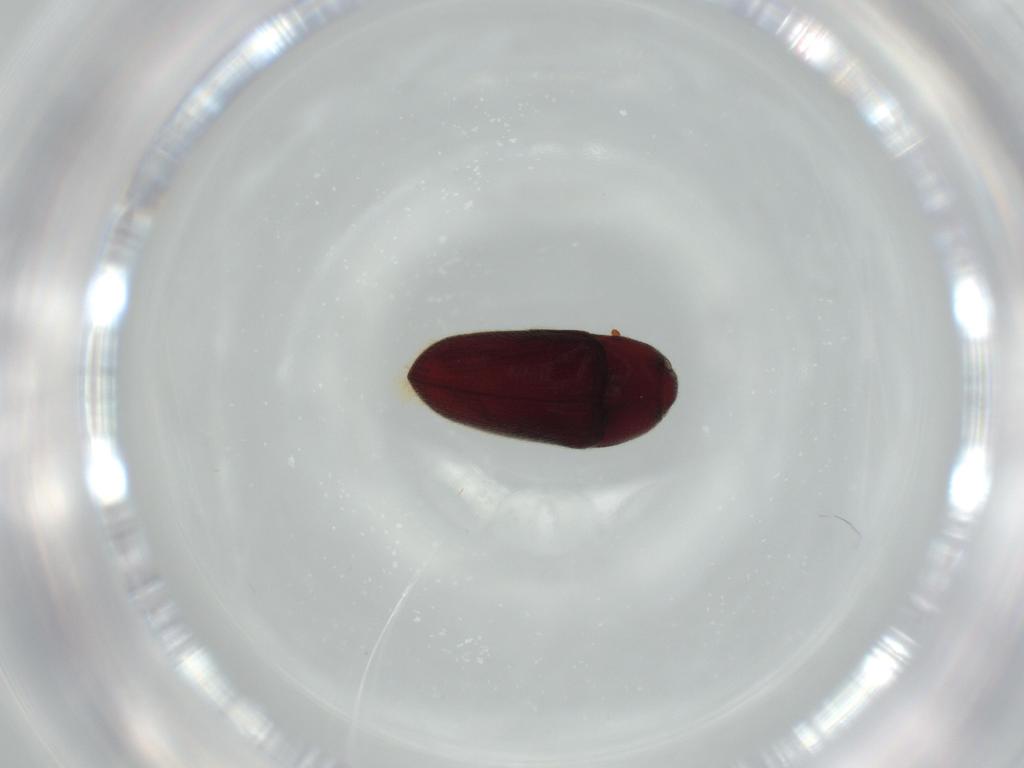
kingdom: Animalia
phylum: Arthropoda
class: Insecta
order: Coleoptera
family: Throscidae
